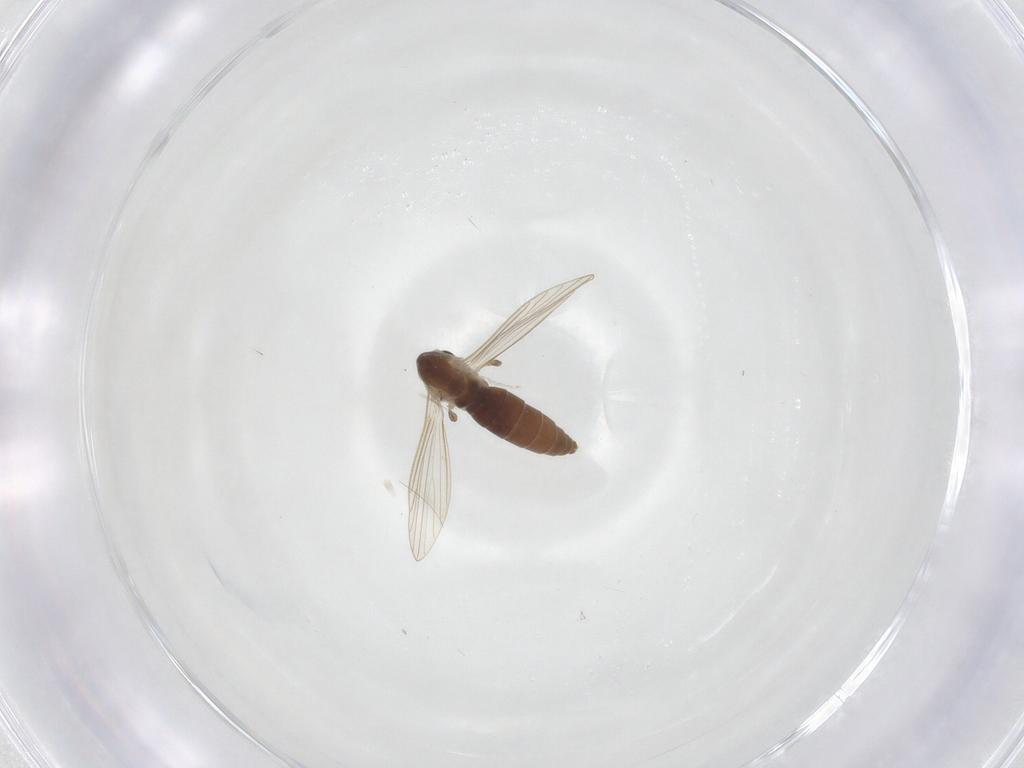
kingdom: Animalia
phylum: Arthropoda
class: Insecta
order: Diptera
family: Psychodidae
